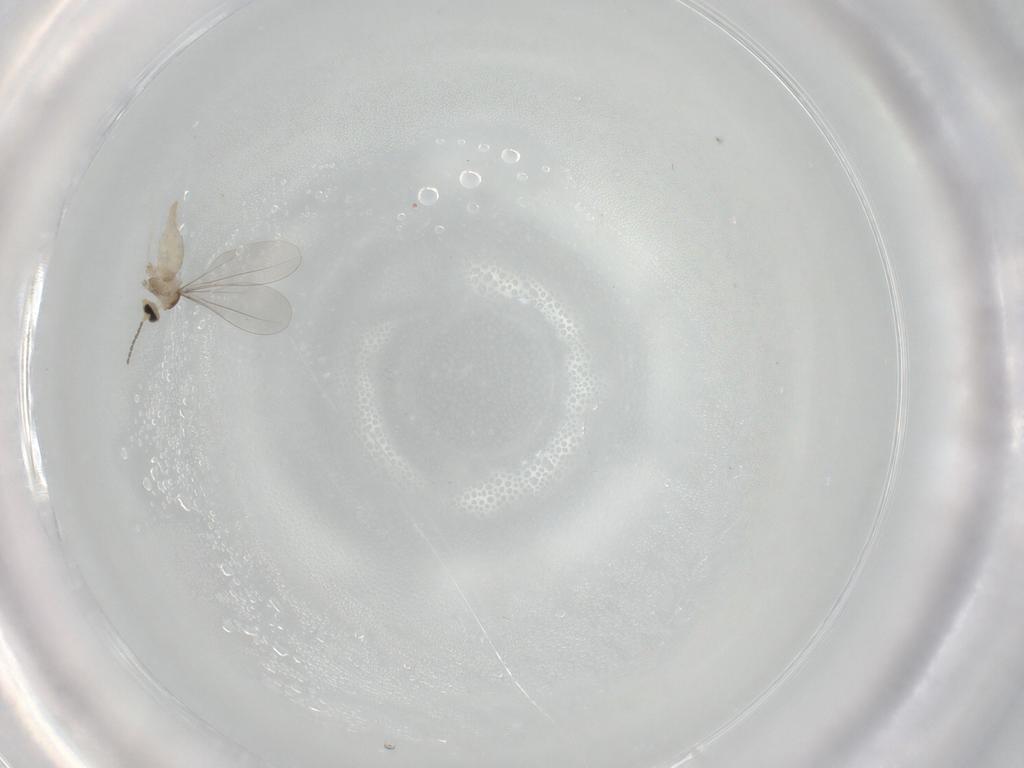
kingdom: Animalia
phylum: Arthropoda
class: Insecta
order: Diptera
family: Cecidomyiidae
